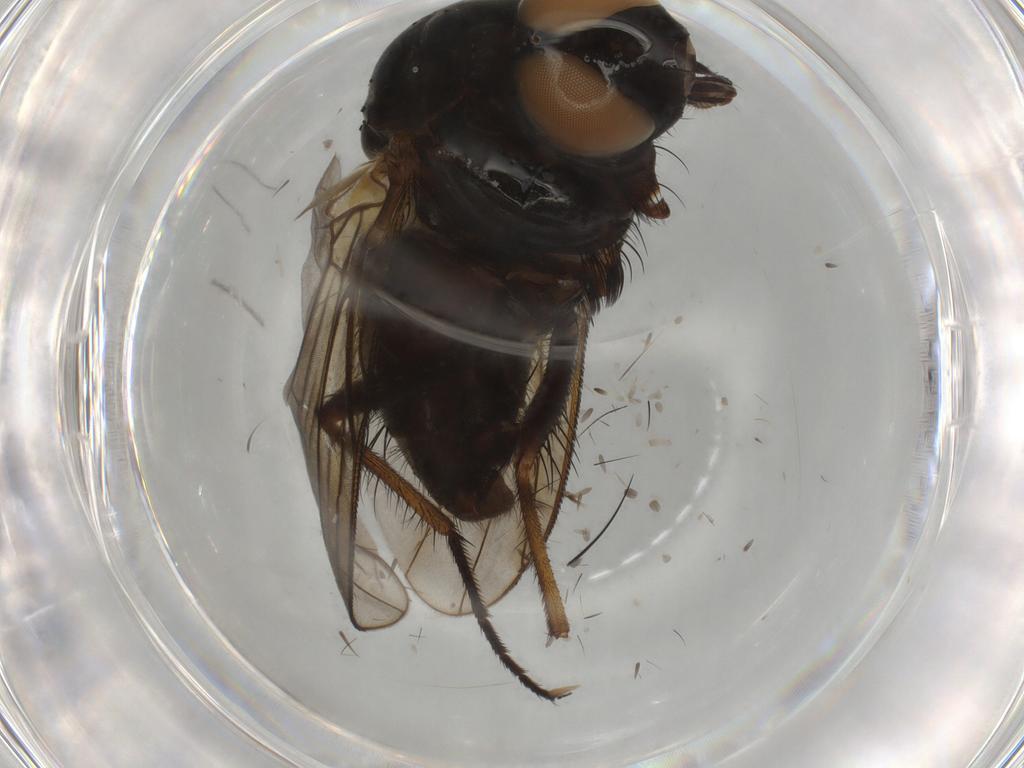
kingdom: Animalia
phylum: Arthropoda
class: Insecta
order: Diptera
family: Muscidae
